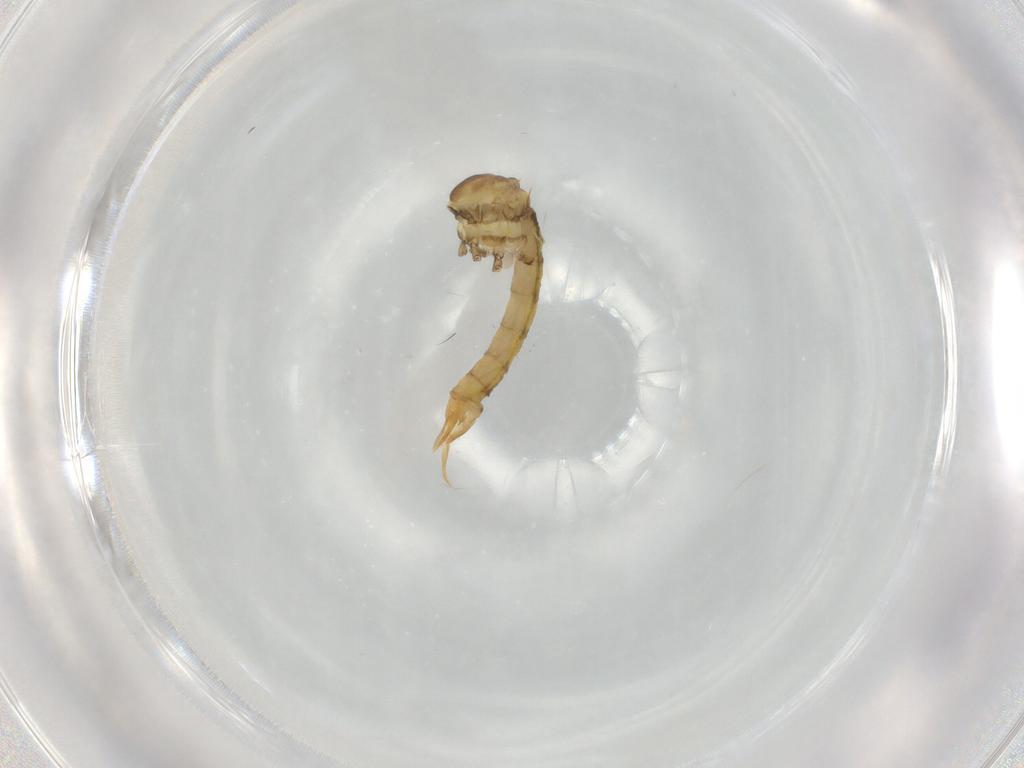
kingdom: Animalia
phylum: Arthropoda
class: Insecta
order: Diptera
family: Limoniidae
